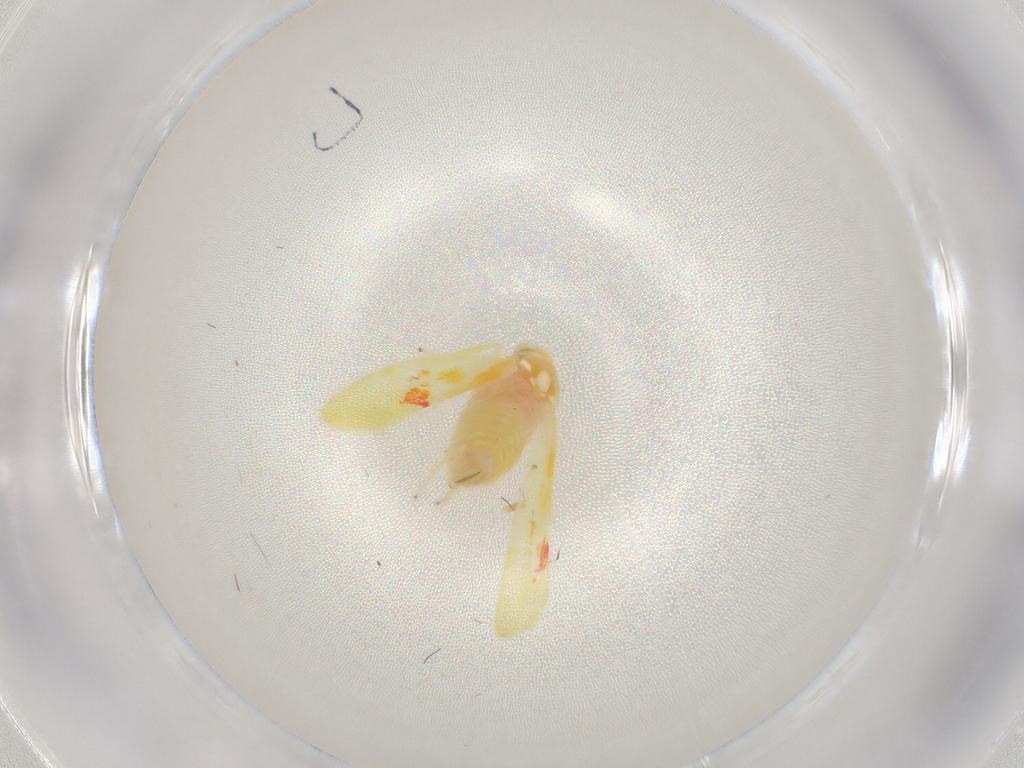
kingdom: Animalia
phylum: Arthropoda
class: Insecta
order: Hemiptera
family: Cicadellidae
